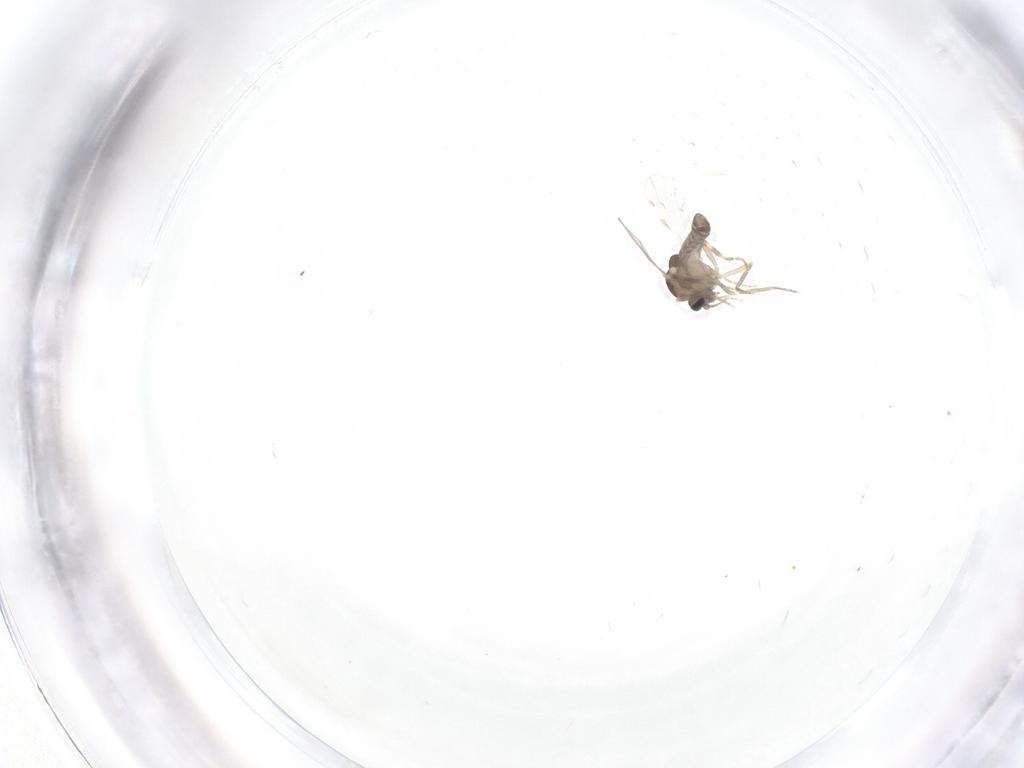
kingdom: Animalia
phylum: Arthropoda
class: Insecta
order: Diptera
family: Ceratopogonidae
